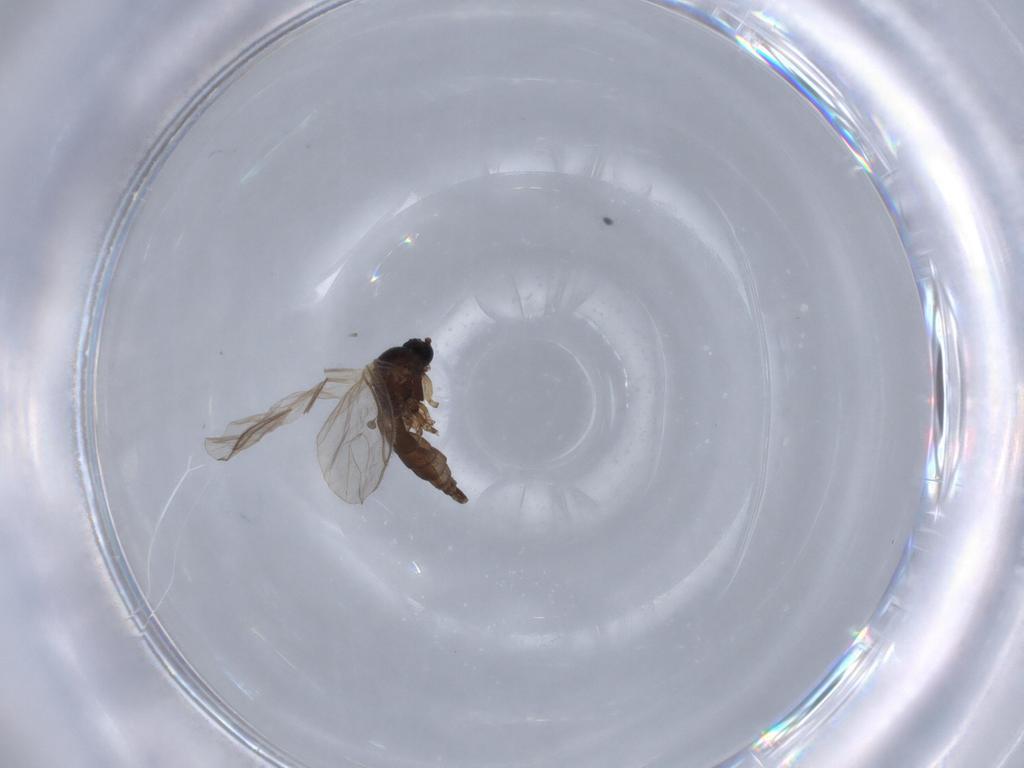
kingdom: Animalia
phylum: Arthropoda
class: Insecta
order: Diptera
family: Sciaridae
